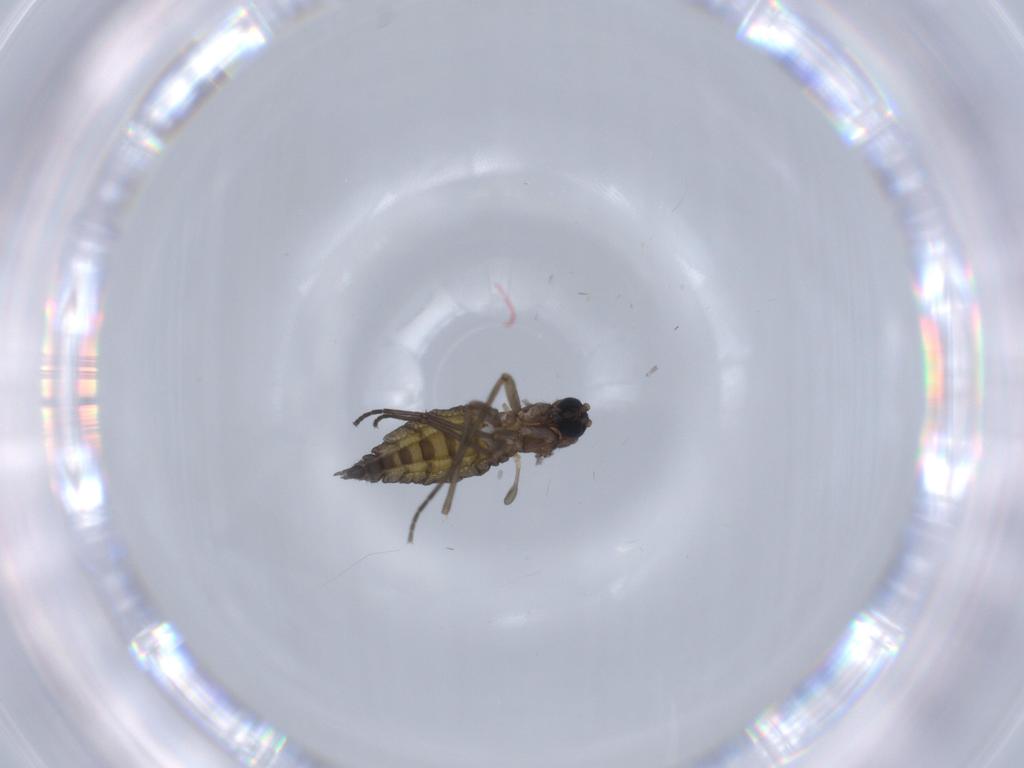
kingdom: Animalia
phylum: Arthropoda
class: Insecta
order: Diptera
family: Sciaridae
